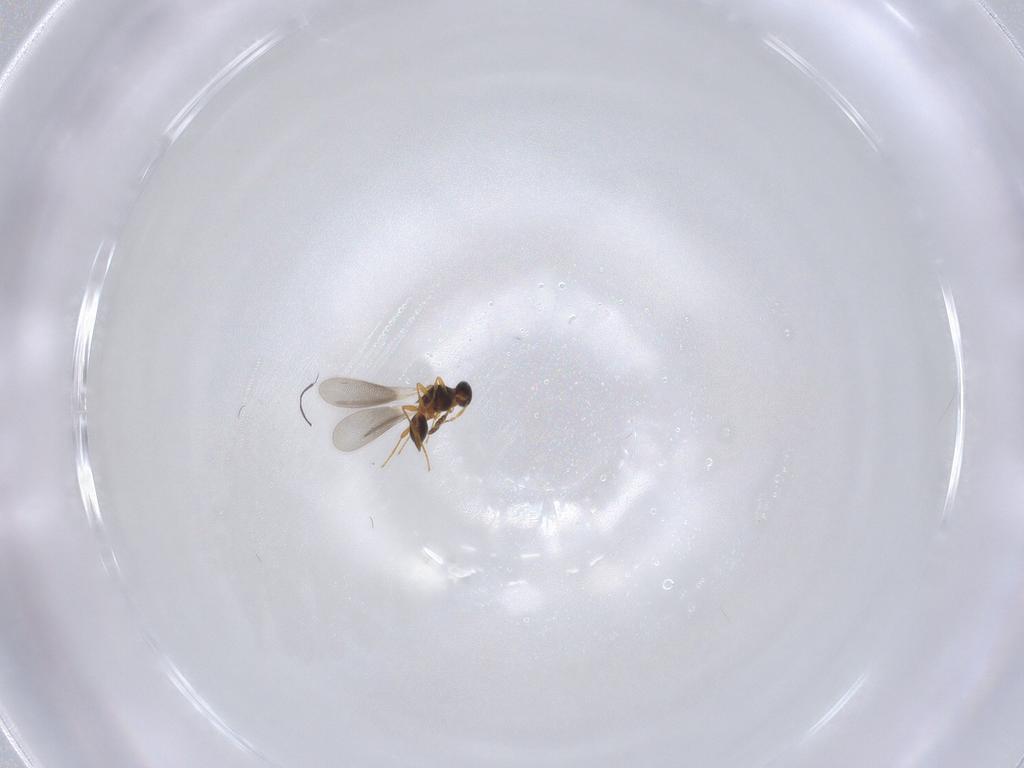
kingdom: Animalia
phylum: Arthropoda
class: Insecta
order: Hymenoptera
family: Platygastridae
